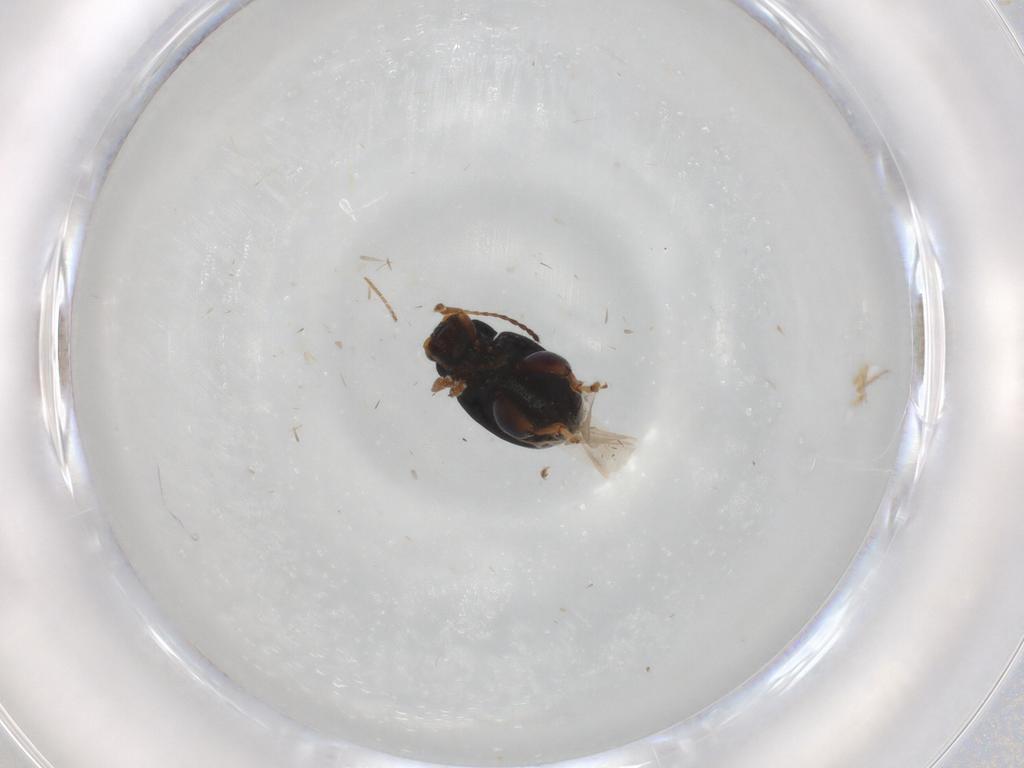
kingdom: Animalia
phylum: Arthropoda
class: Insecta
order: Coleoptera
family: Chrysomelidae
